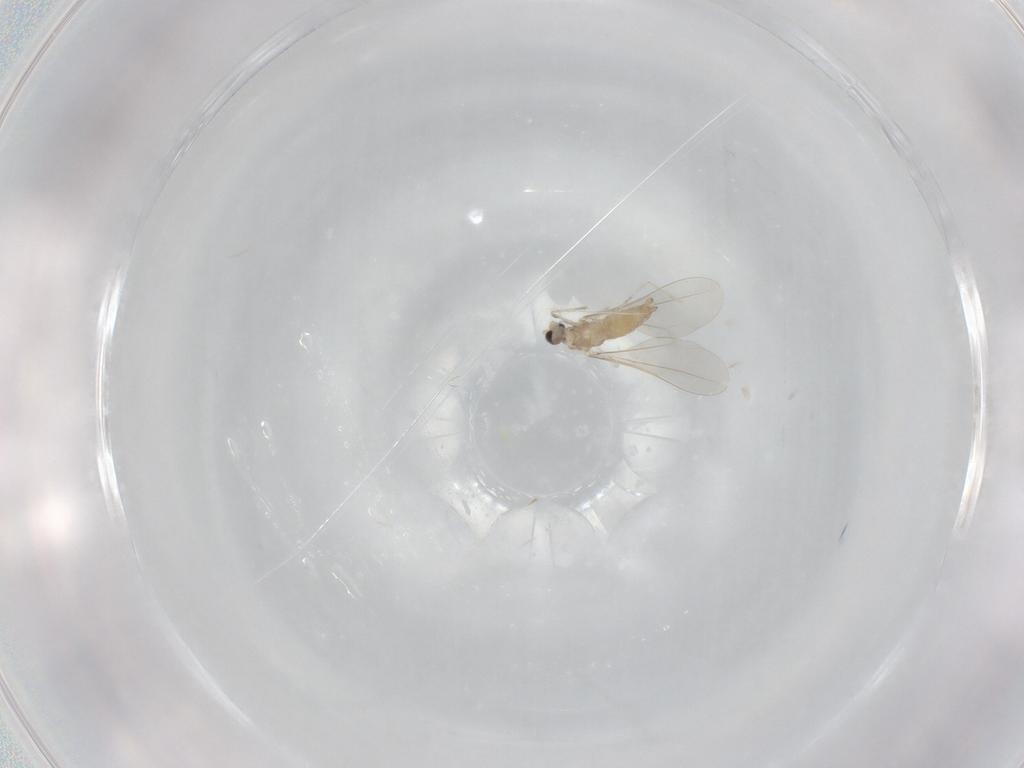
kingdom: Animalia
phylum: Arthropoda
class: Insecta
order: Diptera
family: Cecidomyiidae
